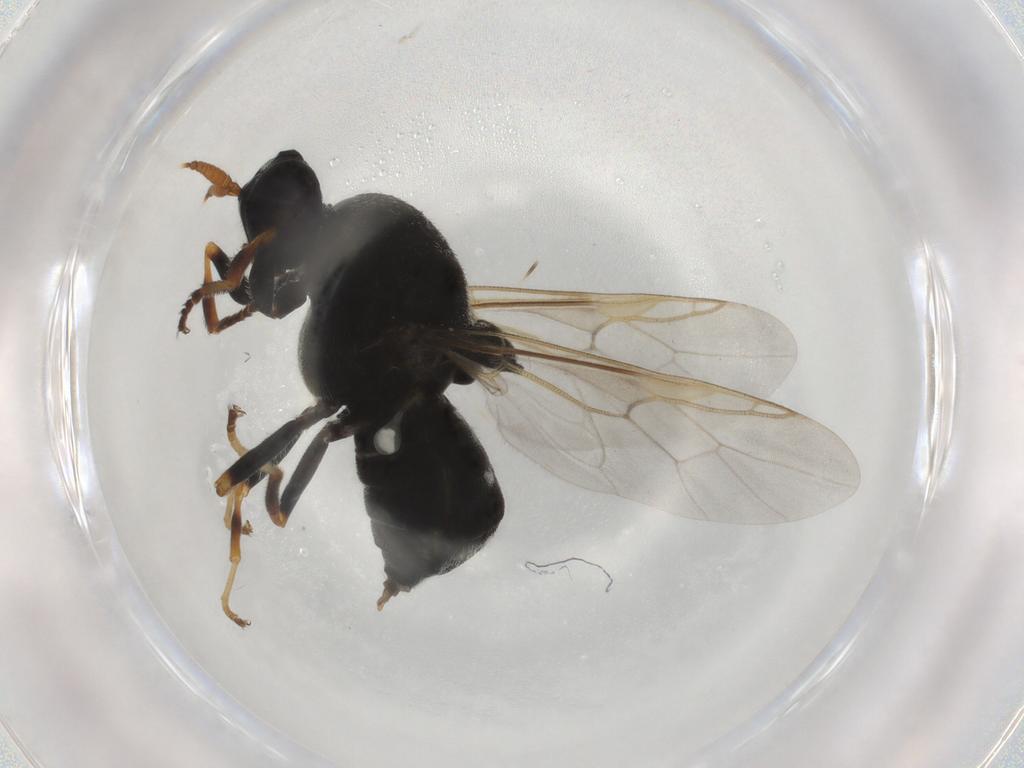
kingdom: Animalia
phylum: Arthropoda
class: Insecta
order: Diptera
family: Stratiomyidae
